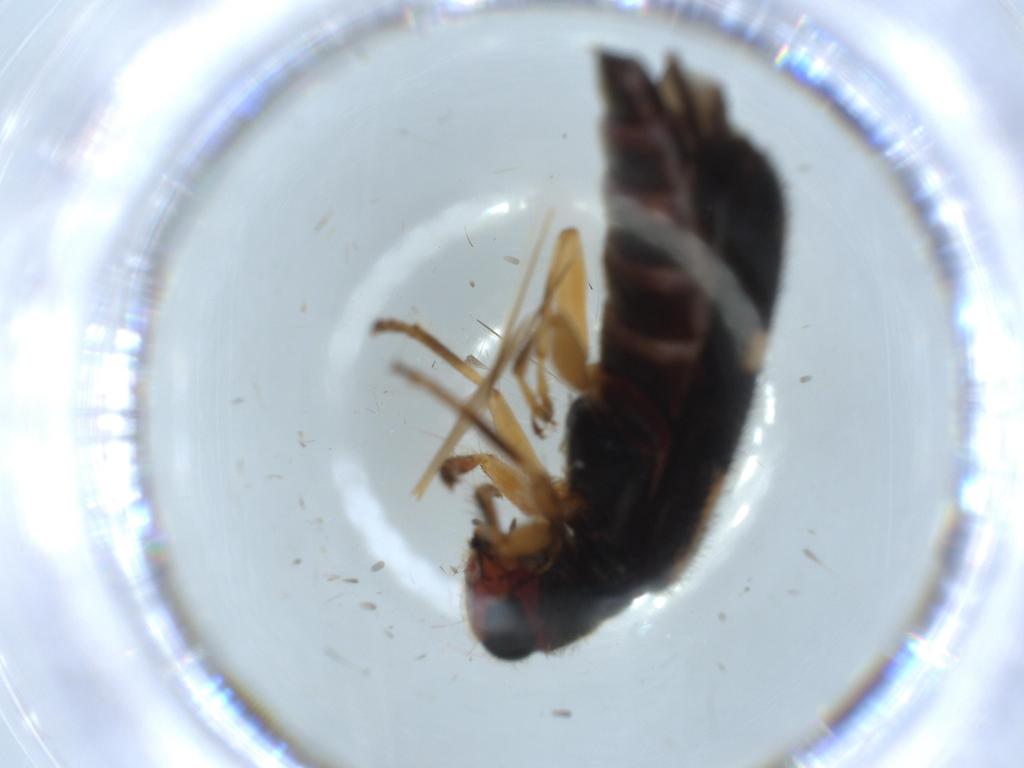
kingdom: Animalia
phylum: Arthropoda
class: Insecta
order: Coleoptera
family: Cleridae
